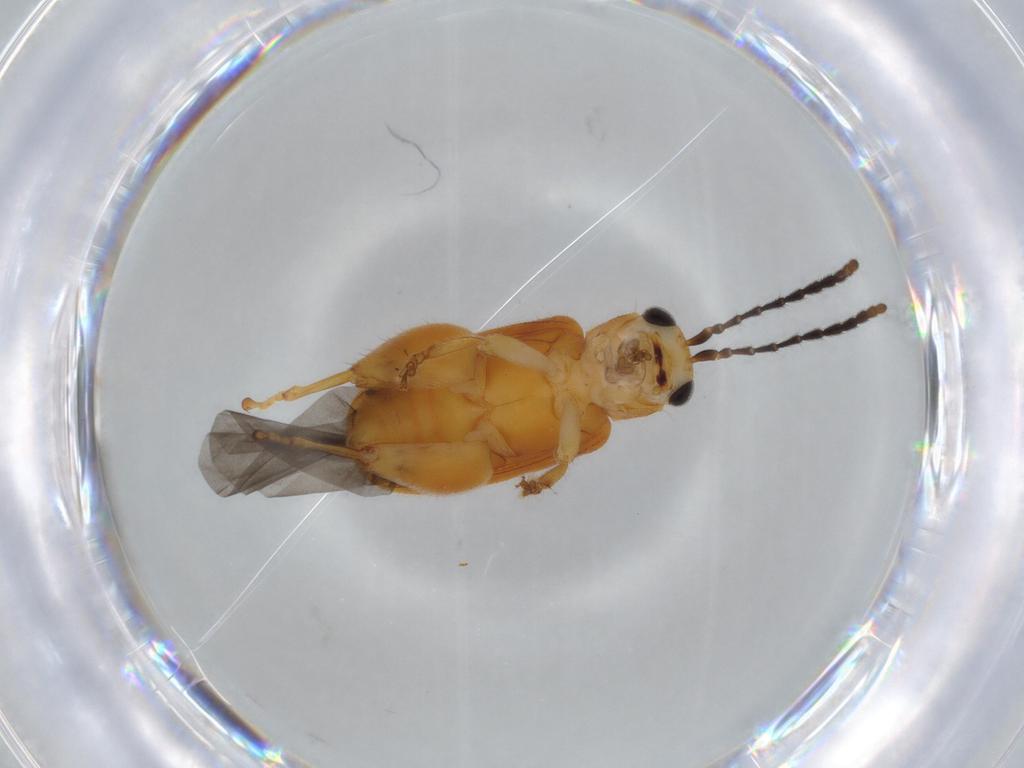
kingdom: Animalia
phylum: Arthropoda
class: Insecta
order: Coleoptera
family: Chrysomelidae
